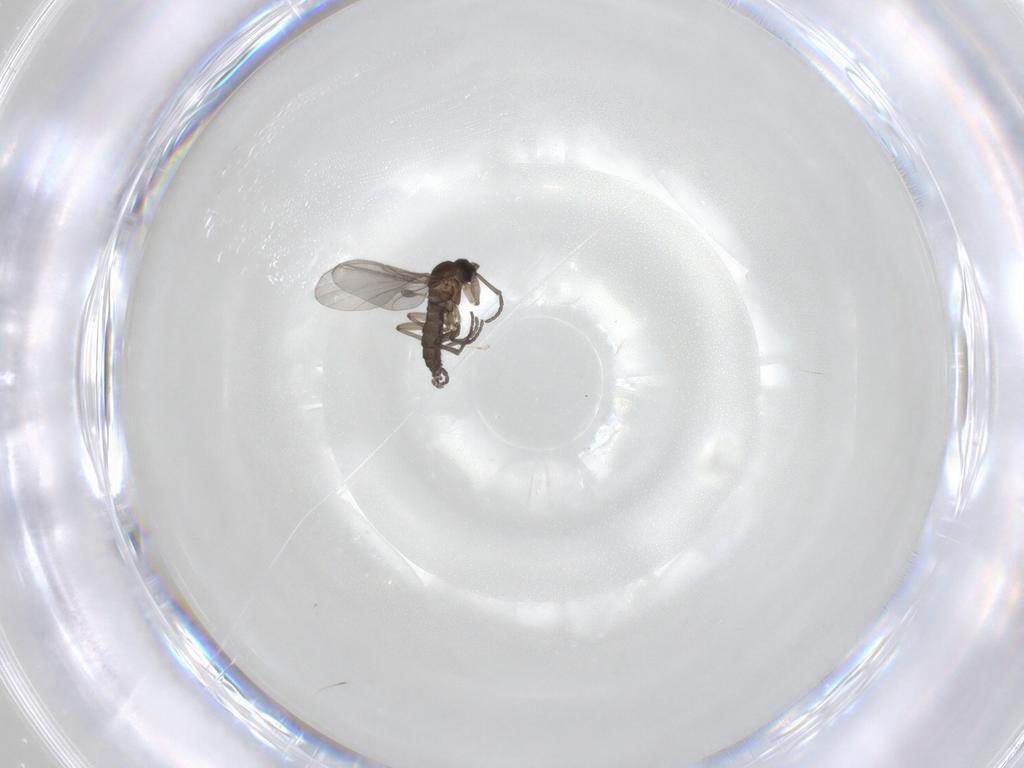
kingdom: Animalia
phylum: Arthropoda
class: Insecta
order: Diptera
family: Sciaridae
